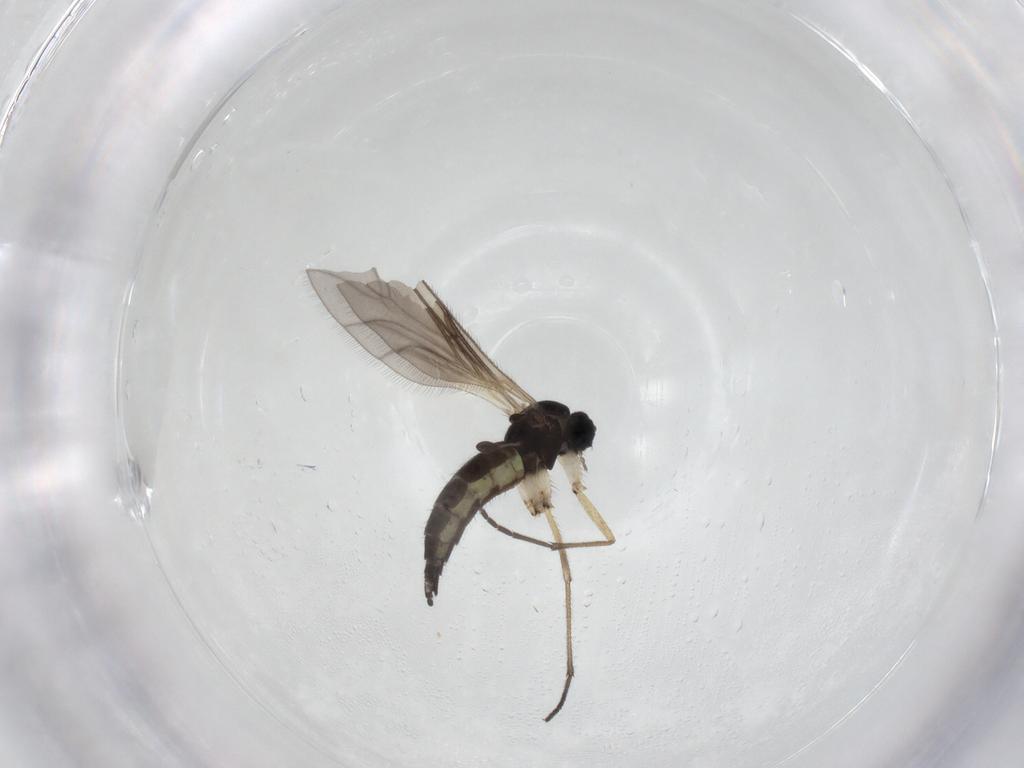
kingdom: Animalia
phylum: Arthropoda
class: Insecta
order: Diptera
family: Sciaridae
